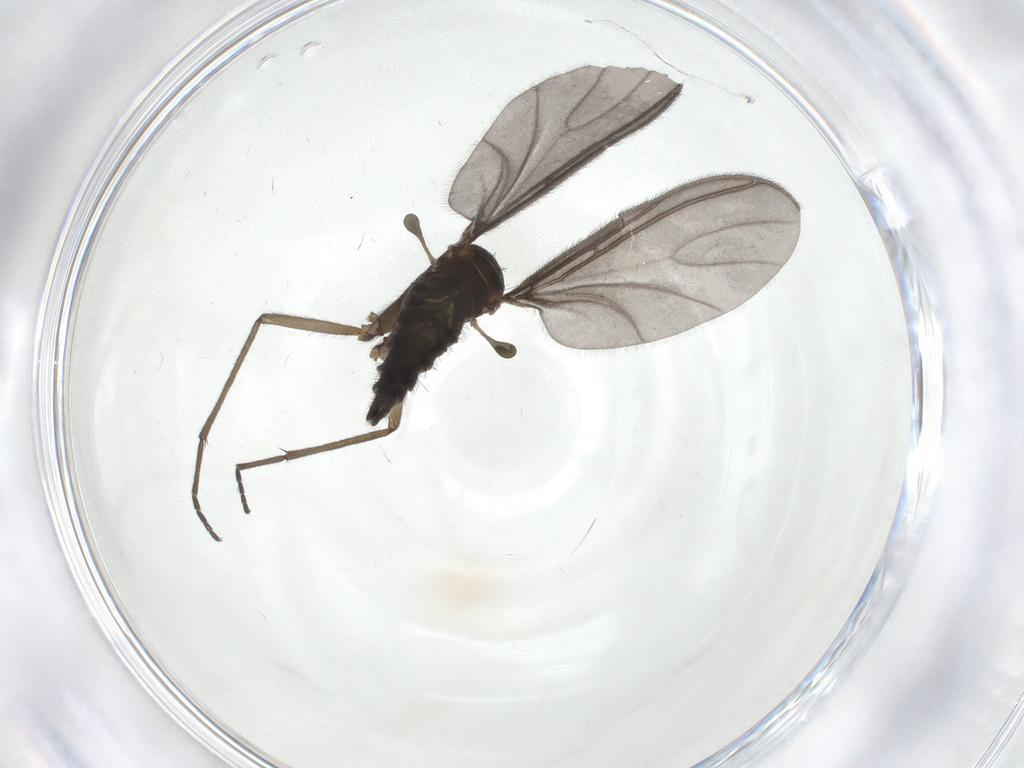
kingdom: Animalia
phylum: Arthropoda
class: Insecta
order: Diptera
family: Sciaridae
